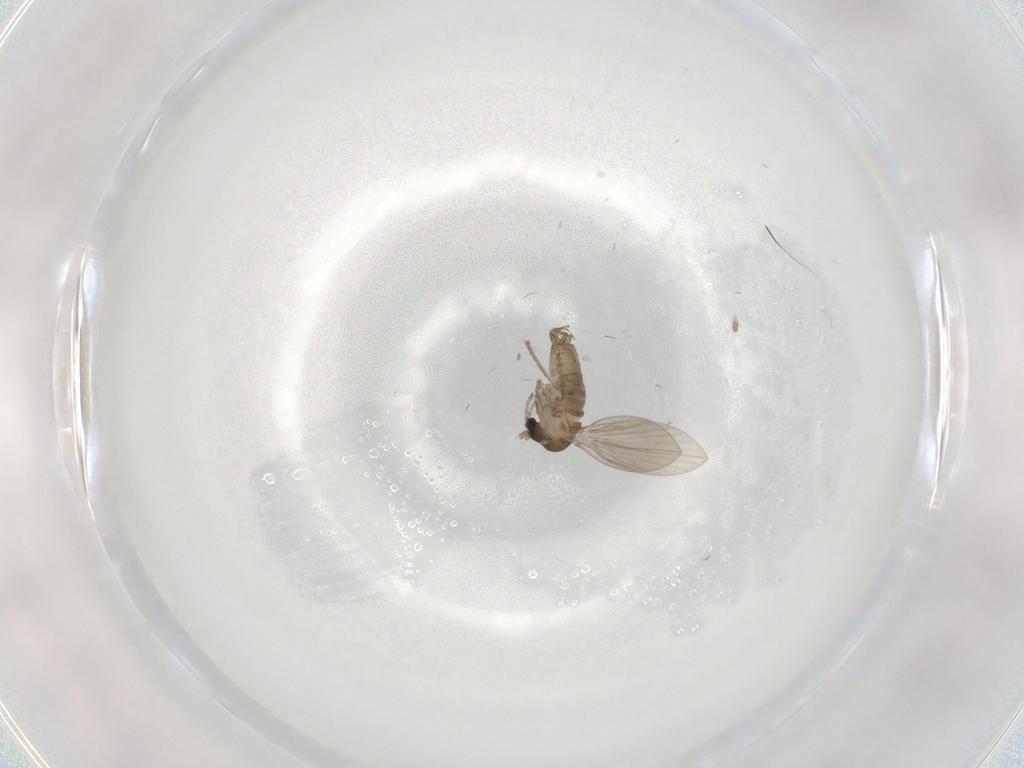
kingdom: Animalia
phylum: Arthropoda
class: Insecta
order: Diptera
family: Psychodidae
